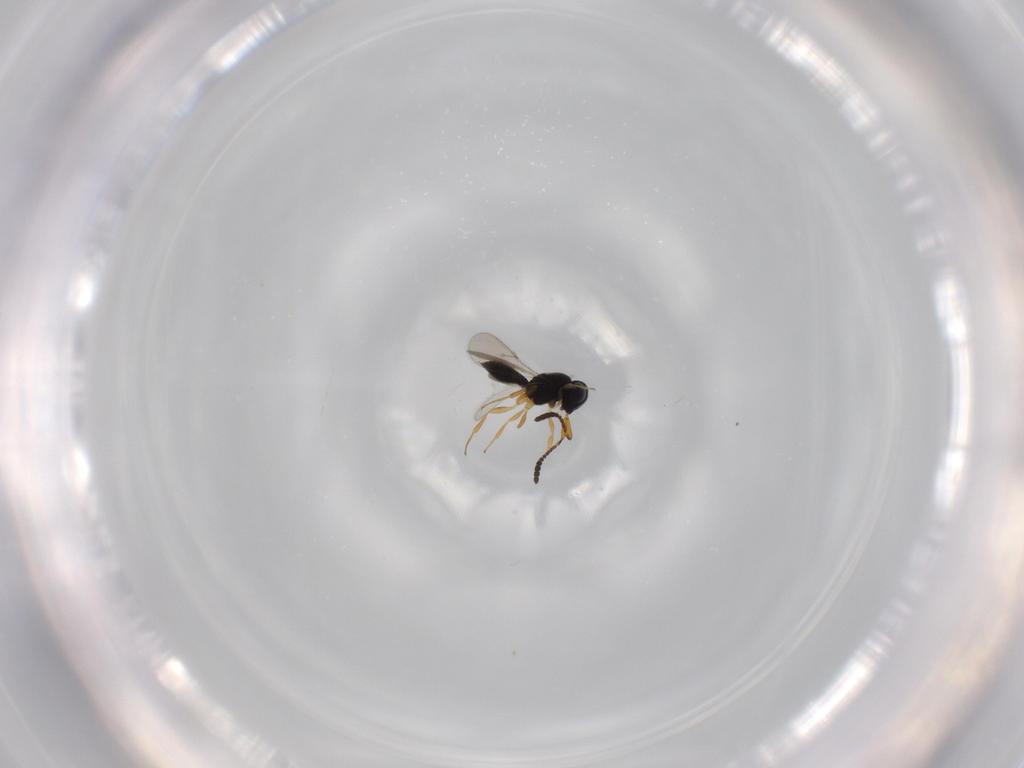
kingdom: Animalia
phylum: Arthropoda
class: Insecta
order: Hymenoptera
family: Scelionidae
